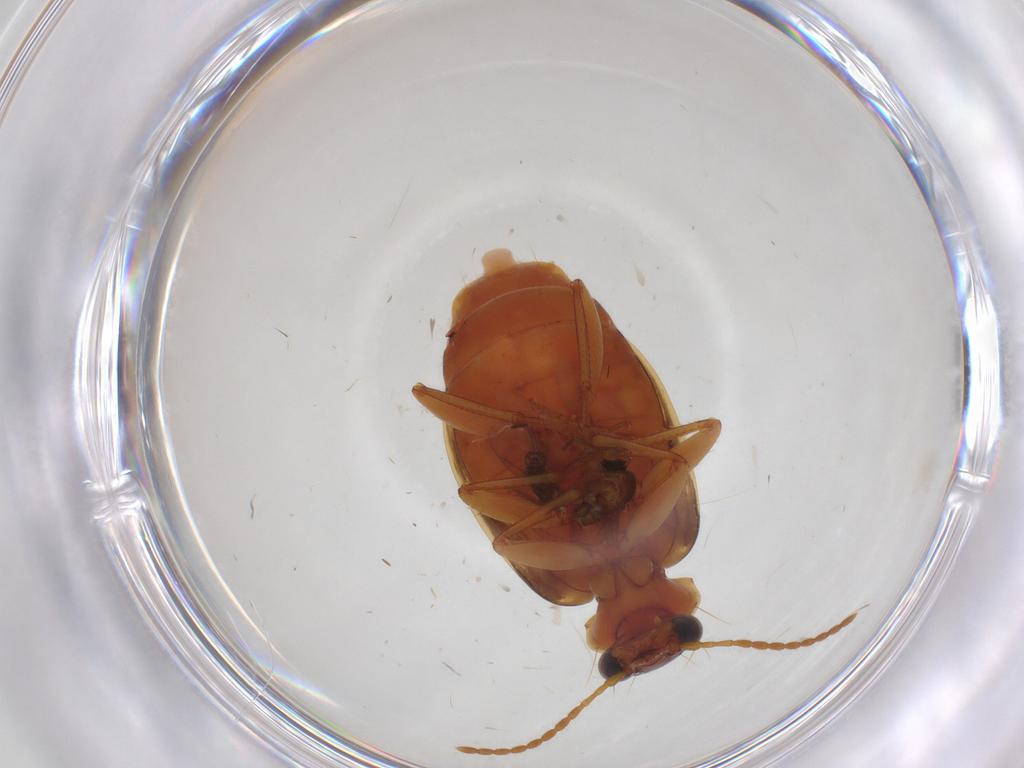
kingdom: Animalia
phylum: Arthropoda
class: Insecta
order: Coleoptera
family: Carabidae
